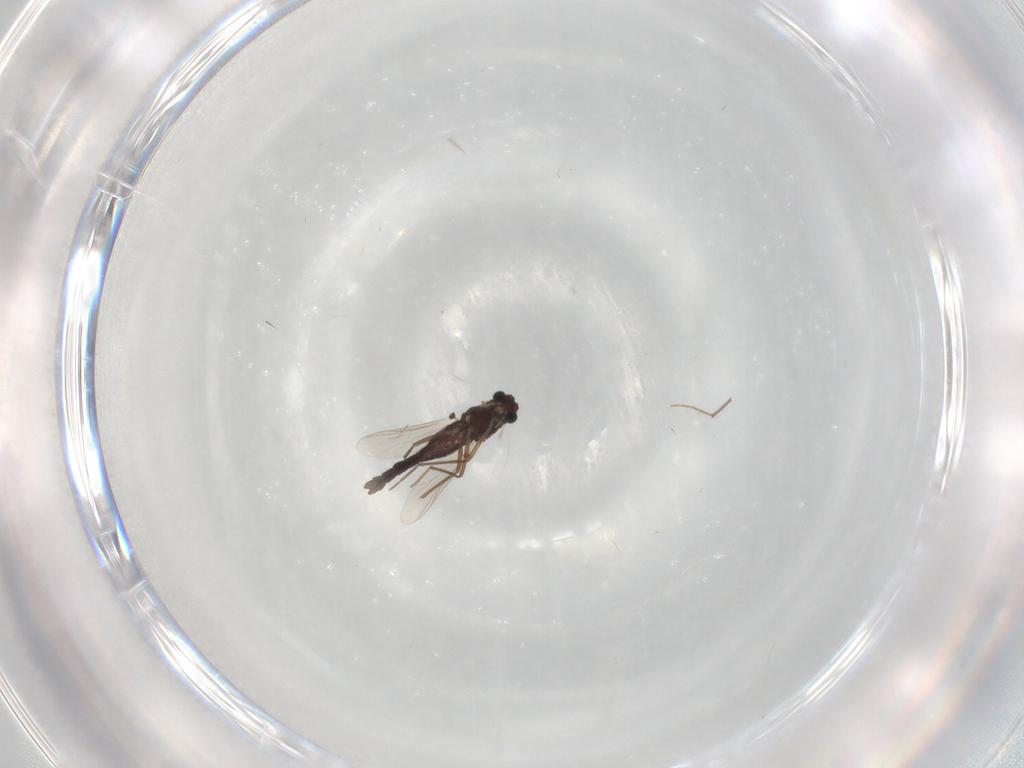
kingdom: Animalia
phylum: Arthropoda
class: Insecta
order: Diptera
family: Chironomidae
